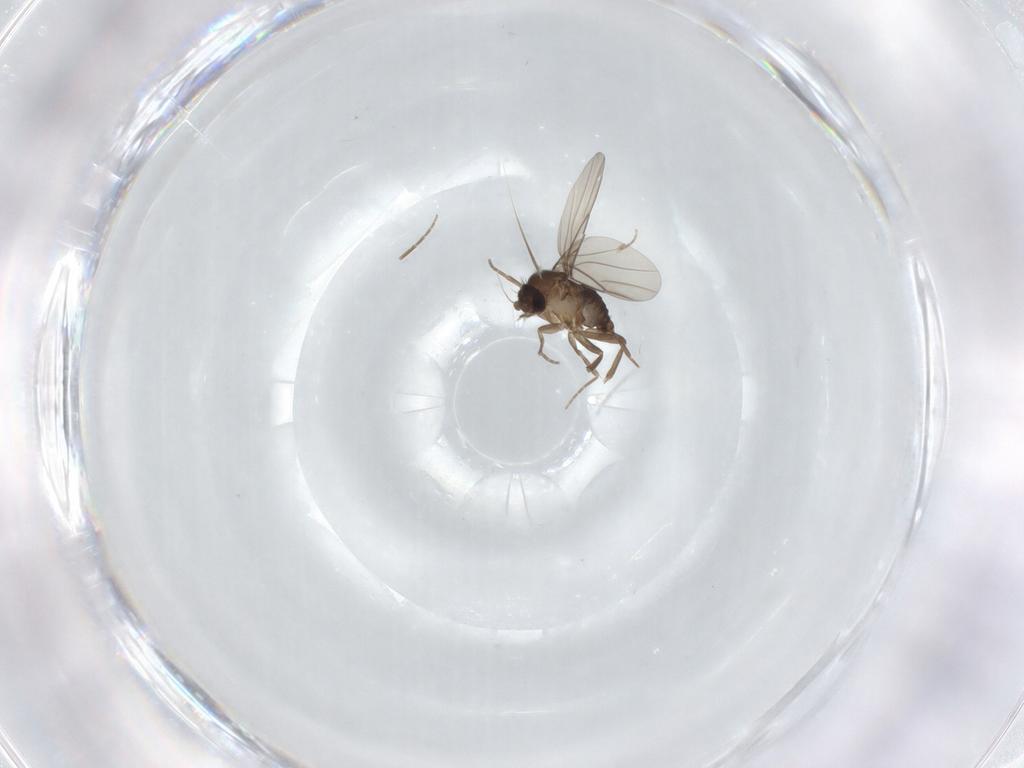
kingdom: Animalia
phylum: Arthropoda
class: Insecta
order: Diptera
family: Phoridae
